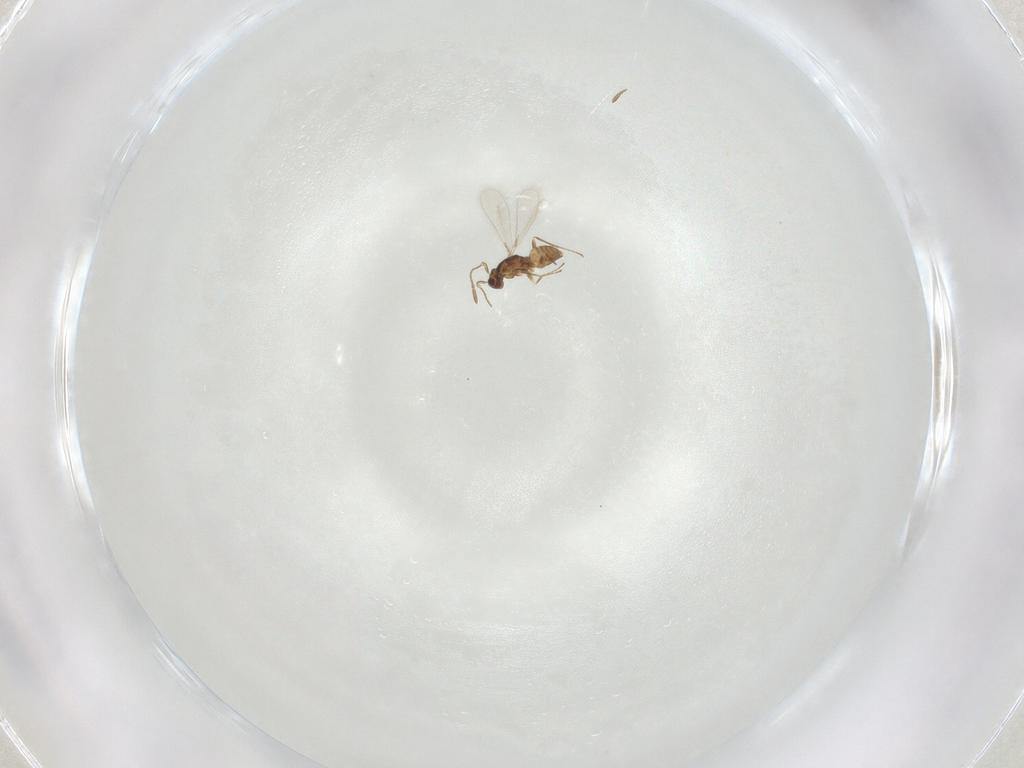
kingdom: Animalia
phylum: Arthropoda
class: Insecta
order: Hymenoptera
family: Mymaridae
